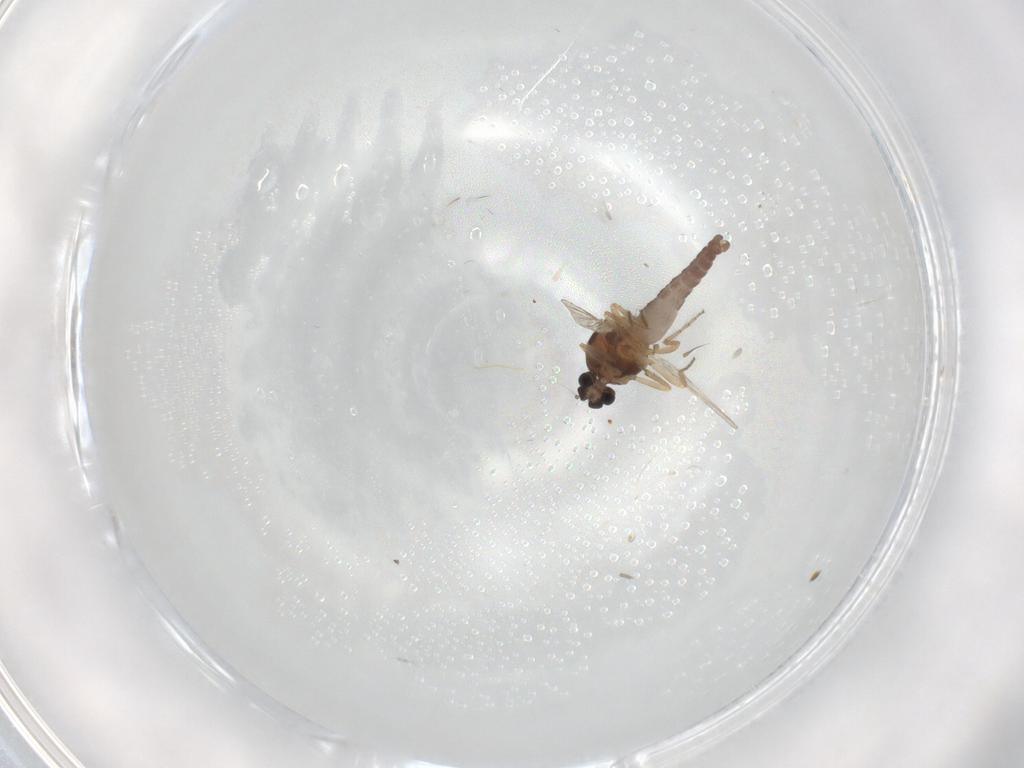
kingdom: Animalia
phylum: Arthropoda
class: Insecta
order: Diptera
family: Ceratopogonidae
